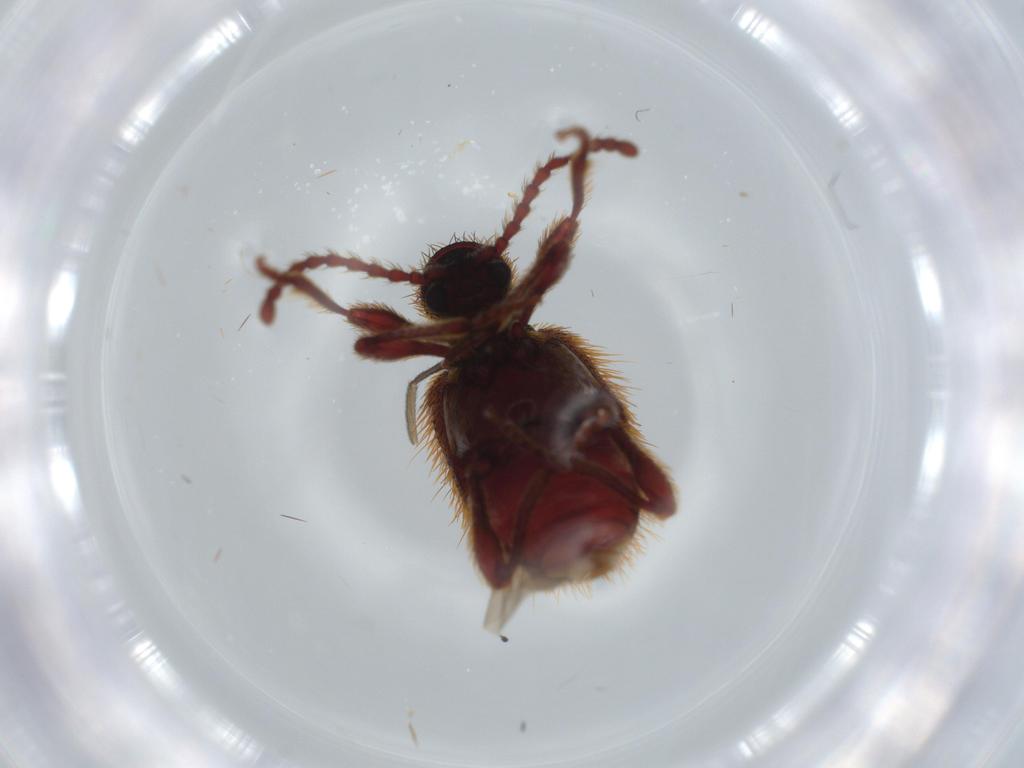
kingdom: Animalia
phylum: Arthropoda
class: Insecta
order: Coleoptera
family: Ptinidae
